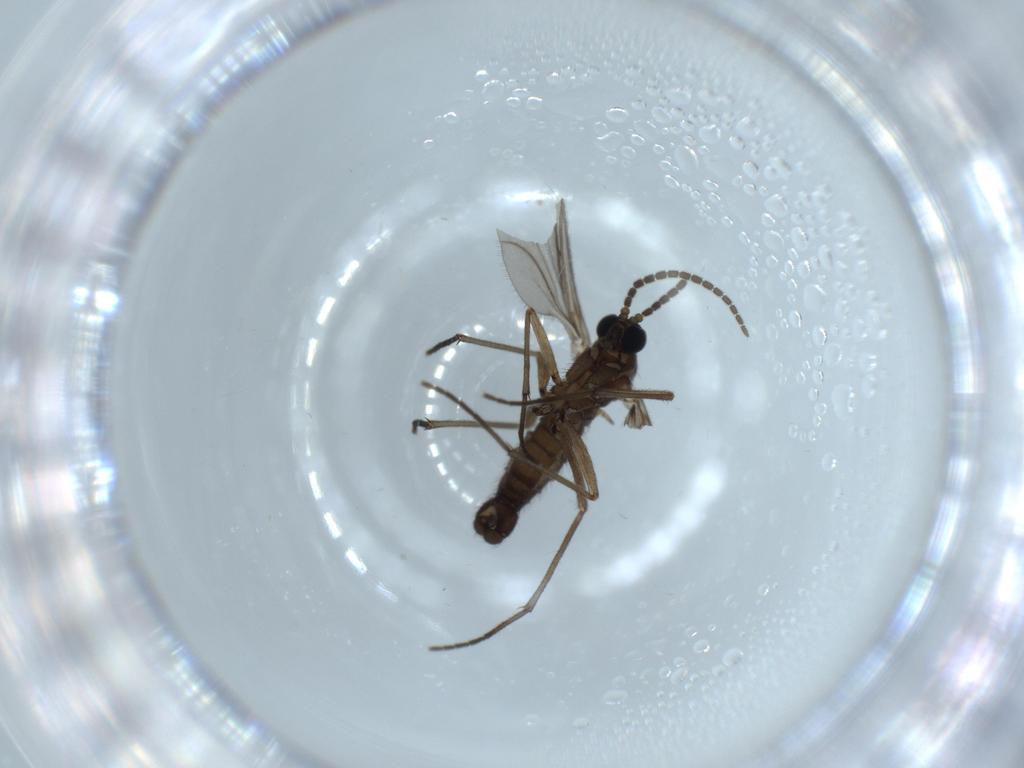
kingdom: Animalia
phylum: Arthropoda
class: Insecta
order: Diptera
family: Sciaridae
